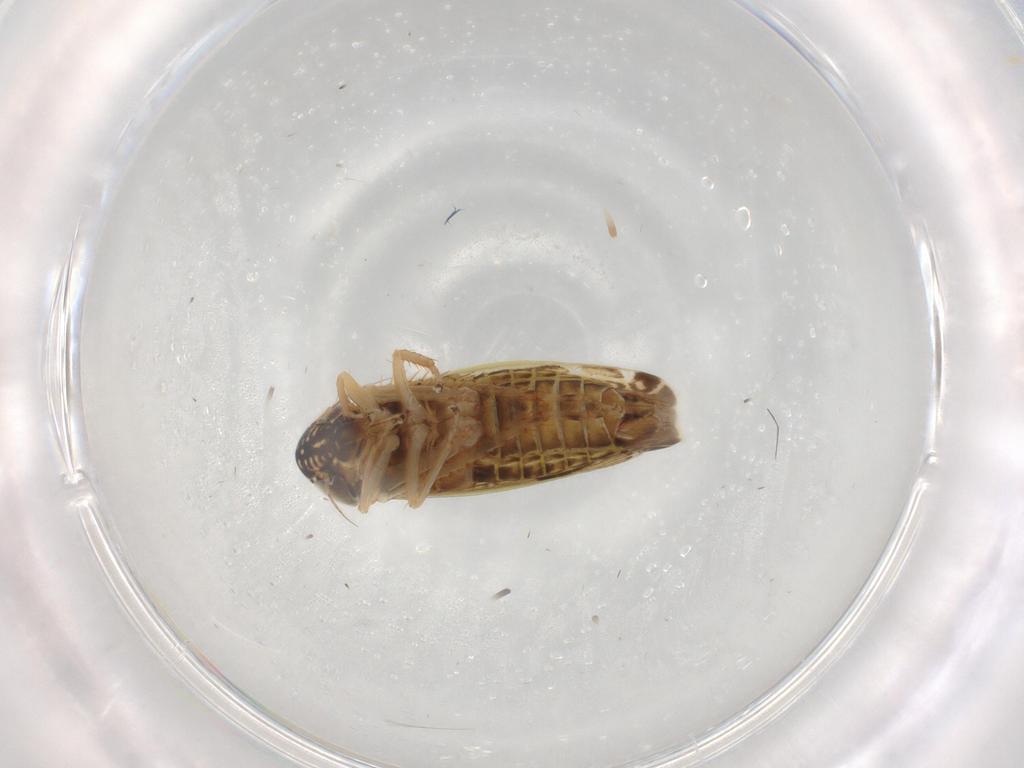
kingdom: Animalia
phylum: Arthropoda
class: Insecta
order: Hemiptera
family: Cicadellidae
